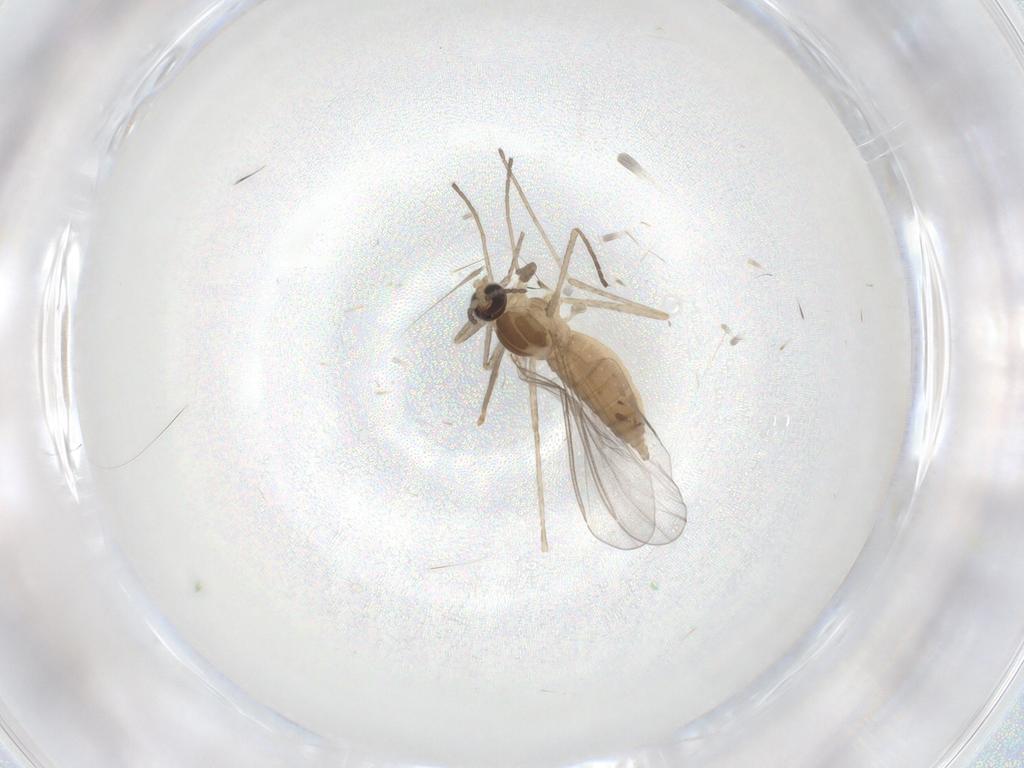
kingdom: Animalia
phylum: Arthropoda
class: Insecta
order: Diptera
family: Cecidomyiidae
